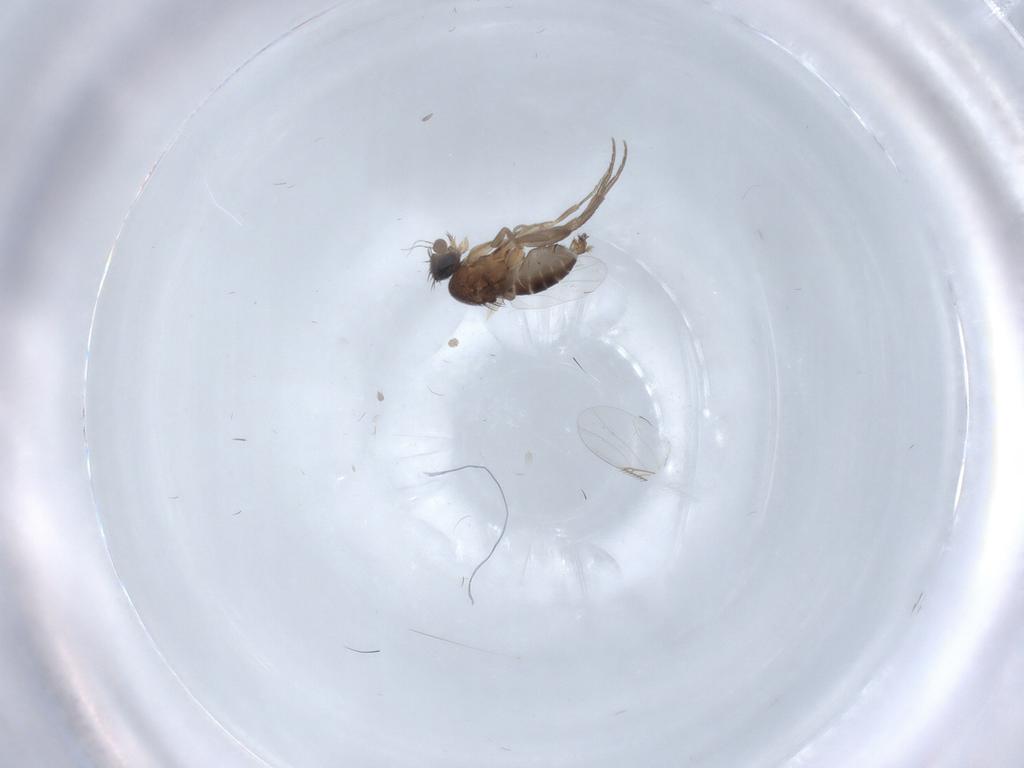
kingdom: Animalia
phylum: Arthropoda
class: Insecta
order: Diptera
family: Phoridae
